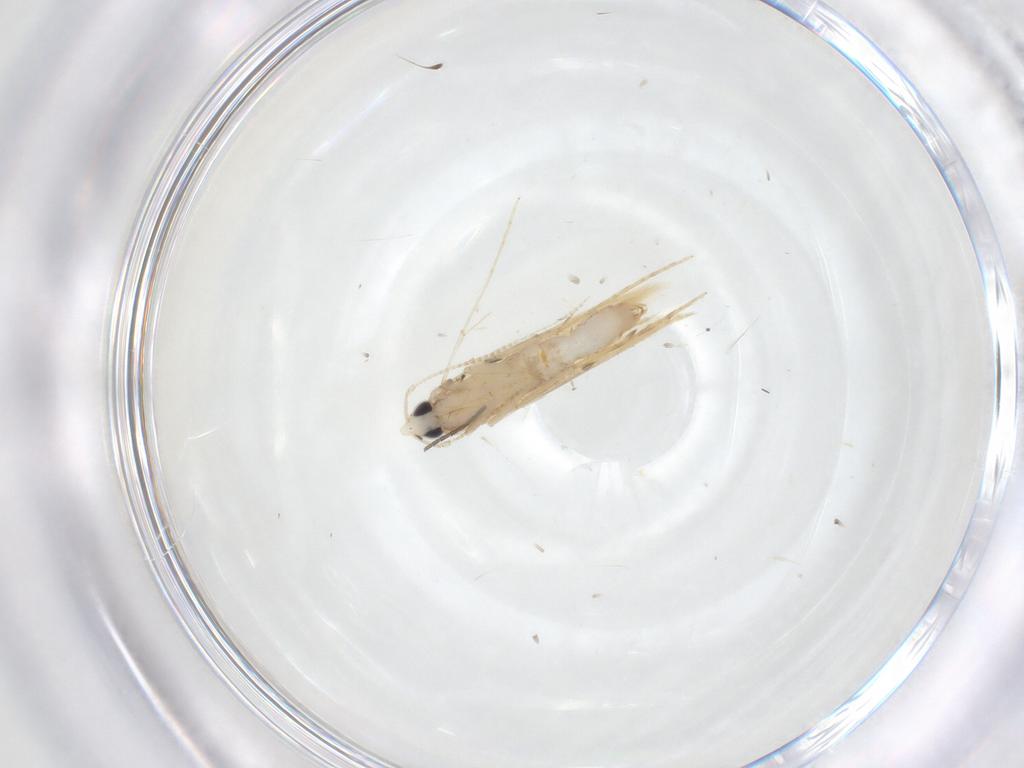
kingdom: Animalia
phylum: Arthropoda
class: Insecta
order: Lepidoptera
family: Saturniidae
